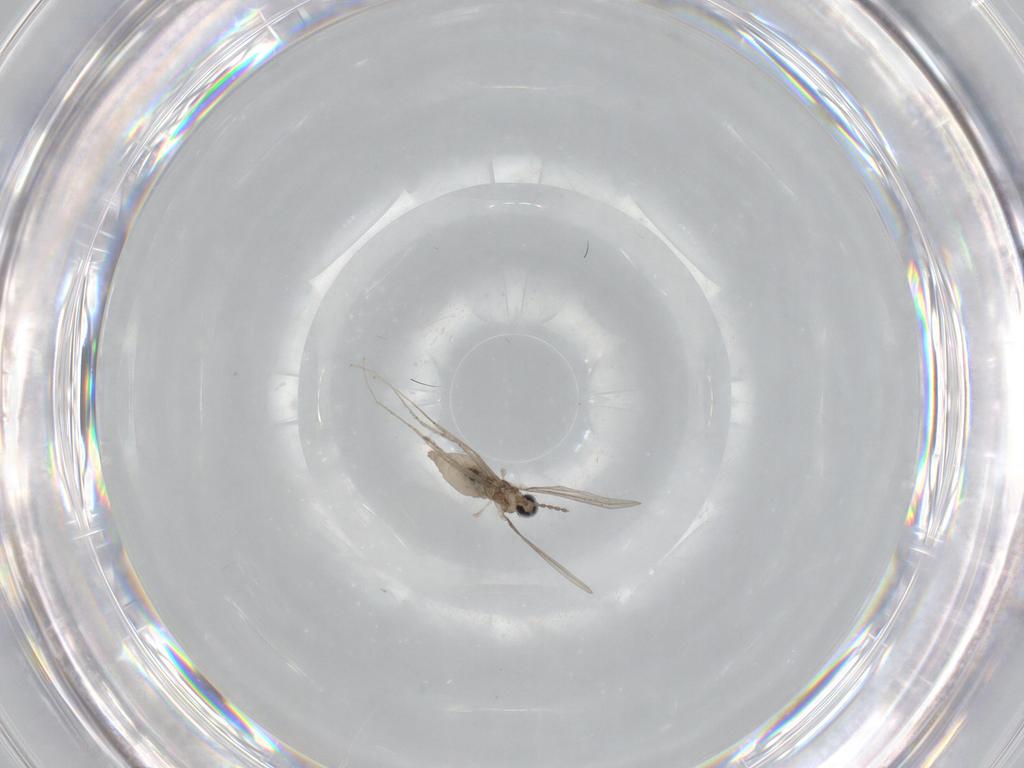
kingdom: Animalia
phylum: Arthropoda
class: Insecta
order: Diptera
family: Cecidomyiidae
